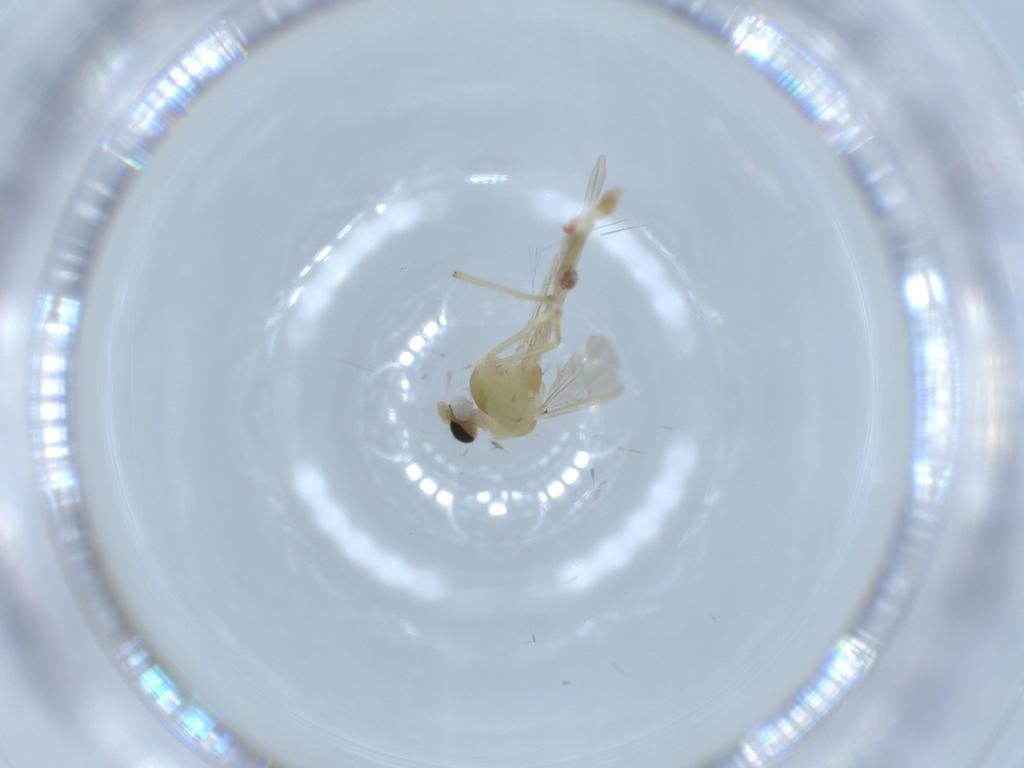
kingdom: Animalia
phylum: Arthropoda
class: Insecta
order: Diptera
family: Chironomidae
